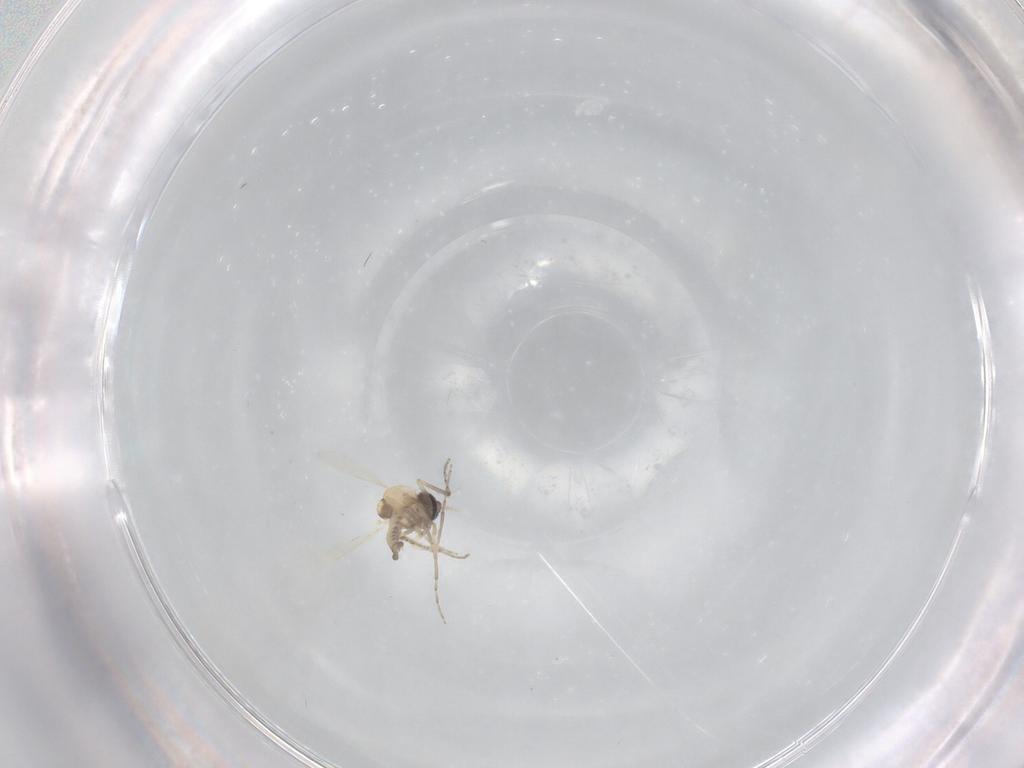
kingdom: Animalia
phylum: Arthropoda
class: Insecta
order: Diptera
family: Ceratopogonidae
